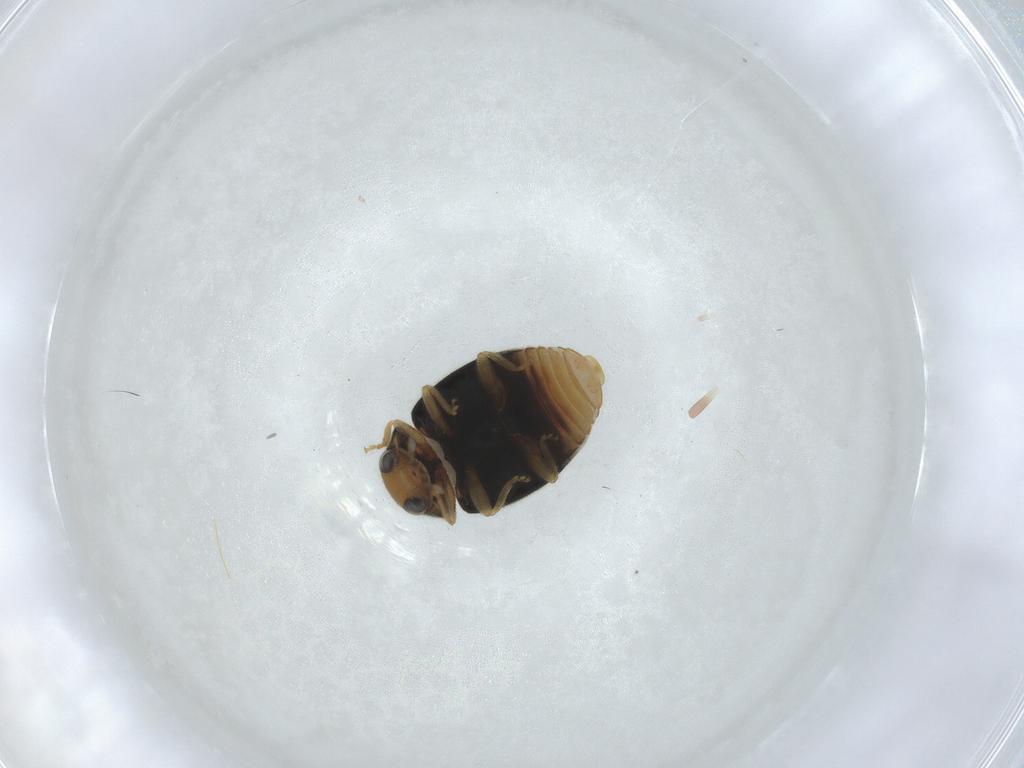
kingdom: Animalia
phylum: Arthropoda
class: Insecta
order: Coleoptera
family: Coccinellidae
